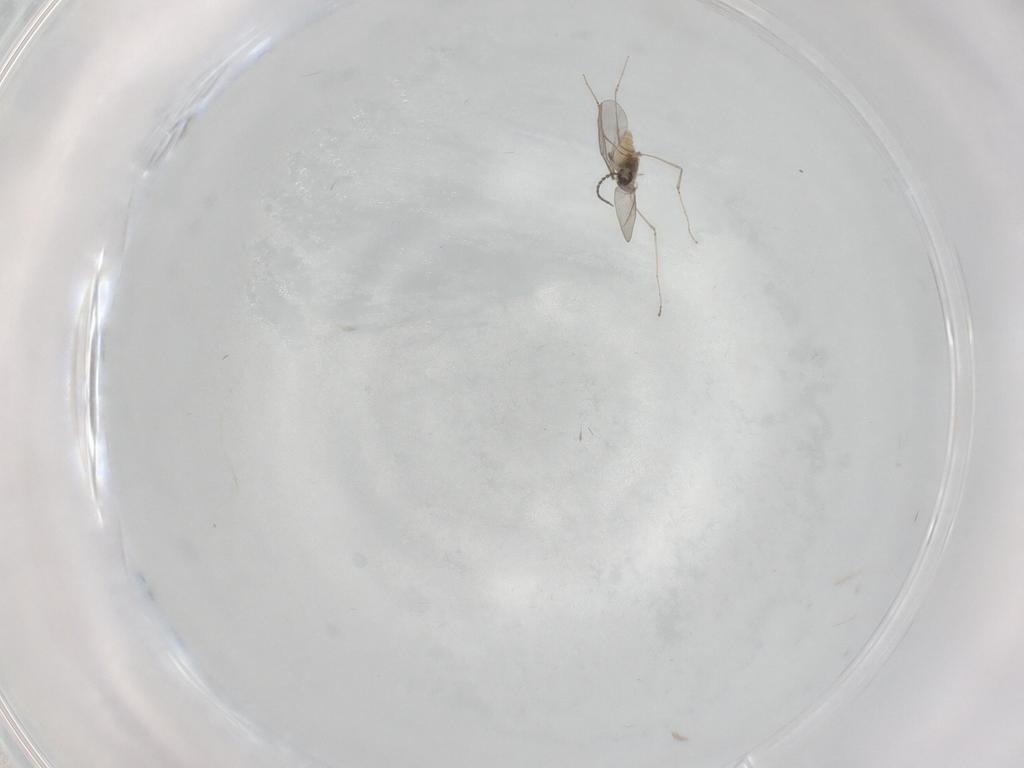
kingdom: Animalia
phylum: Arthropoda
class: Insecta
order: Diptera
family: Cecidomyiidae
